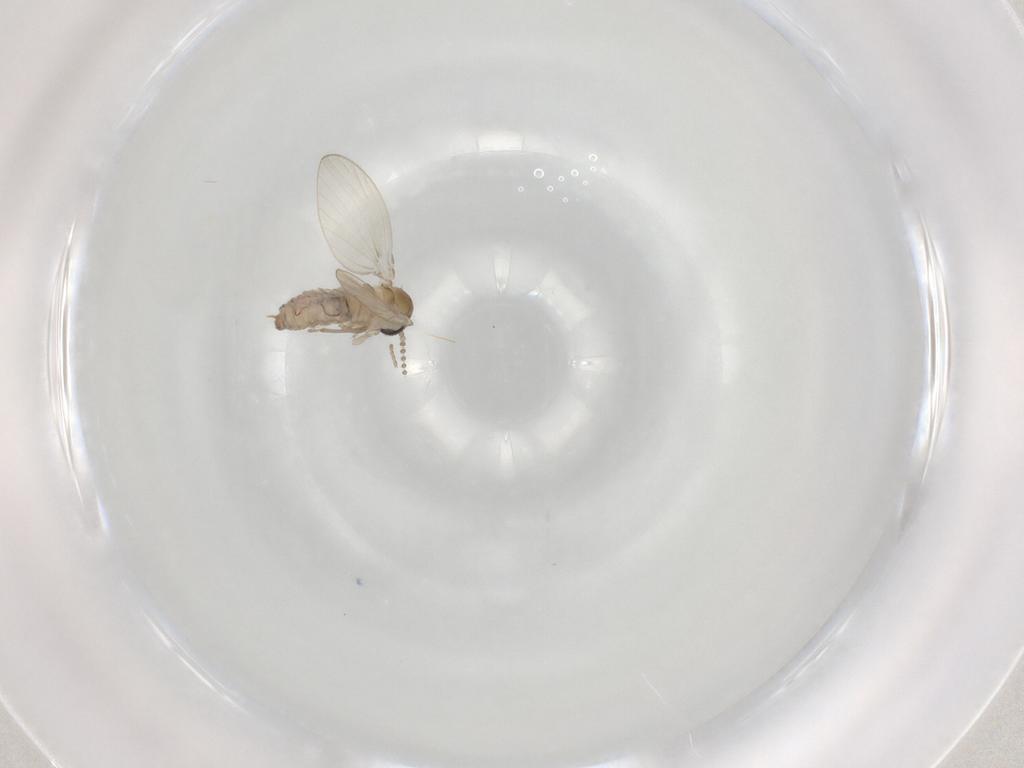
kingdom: Animalia
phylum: Arthropoda
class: Insecta
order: Diptera
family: Psychodidae
